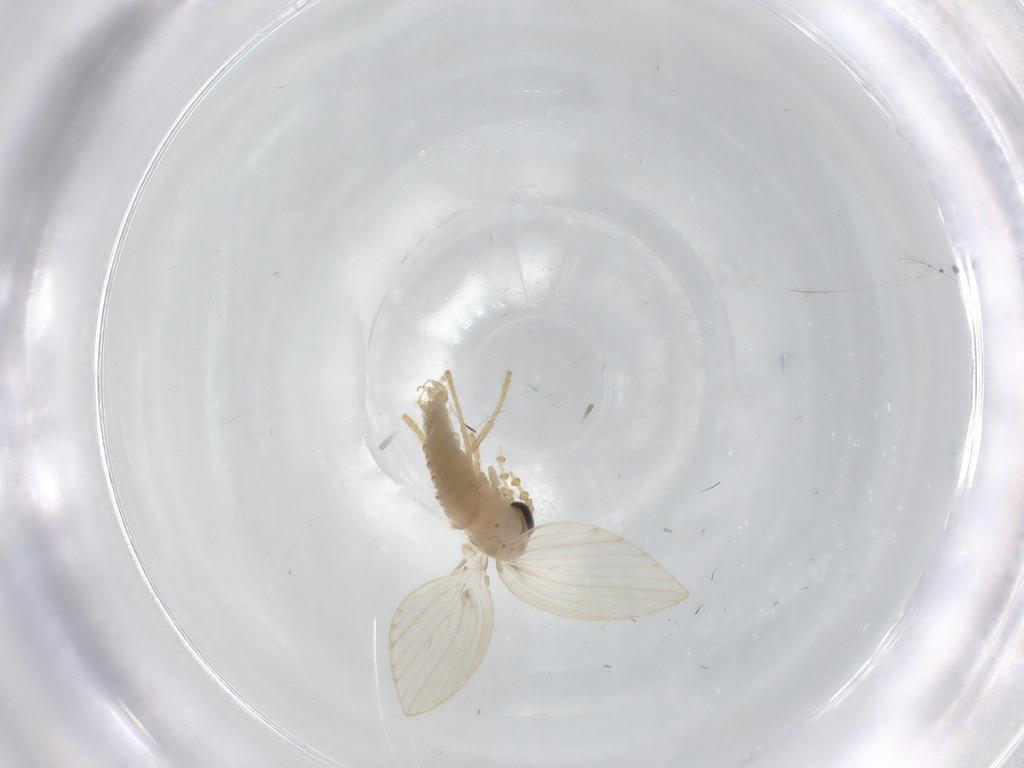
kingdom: Animalia
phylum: Arthropoda
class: Insecta
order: Diptera
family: Psychodidae
